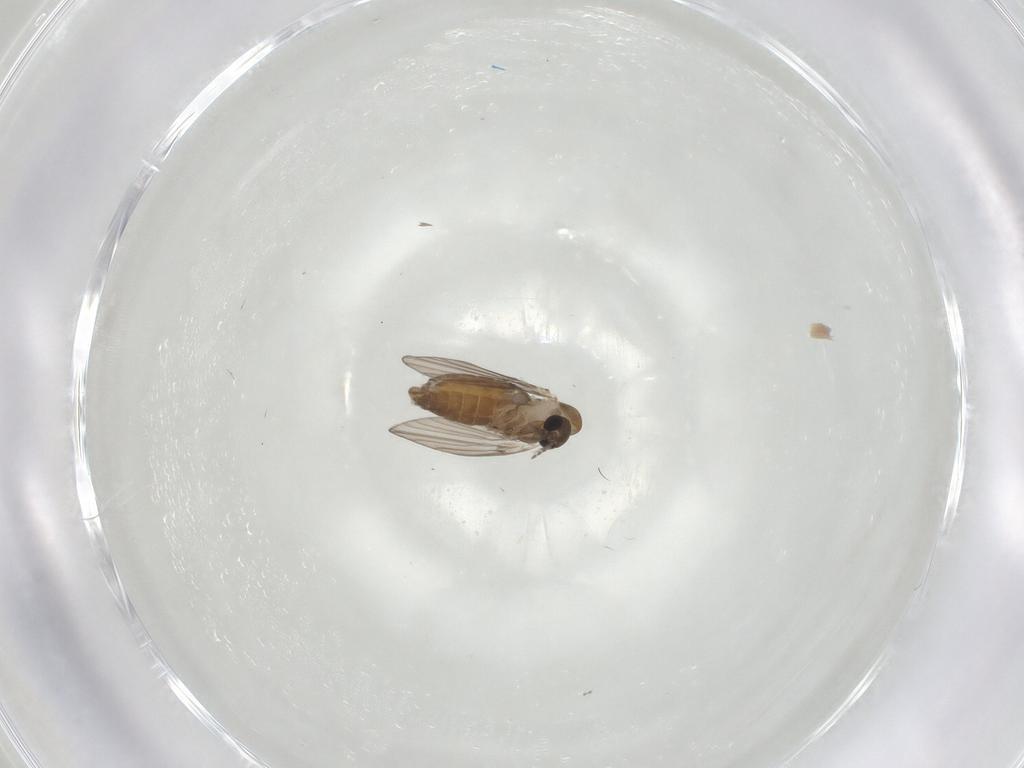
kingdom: Animalia
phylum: Arthropoda
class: Insecta
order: Diptera
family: Psychodidae
